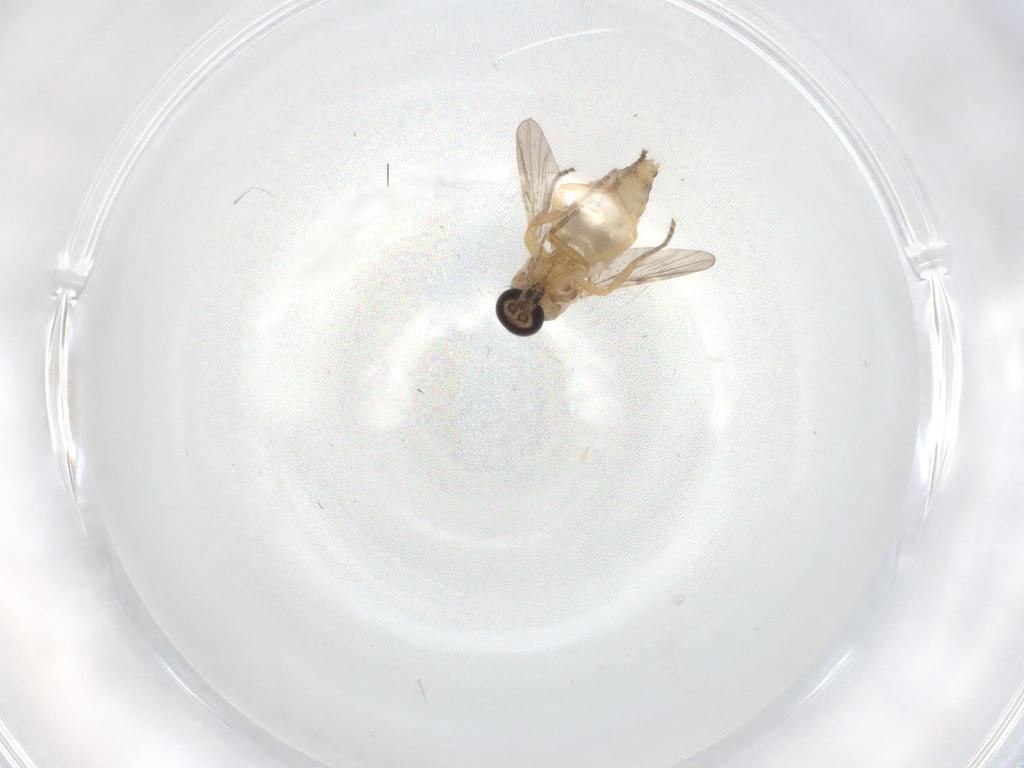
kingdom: Animalia
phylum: Arthropoda
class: Insecta
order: Diptera
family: Ceratopogonidae
